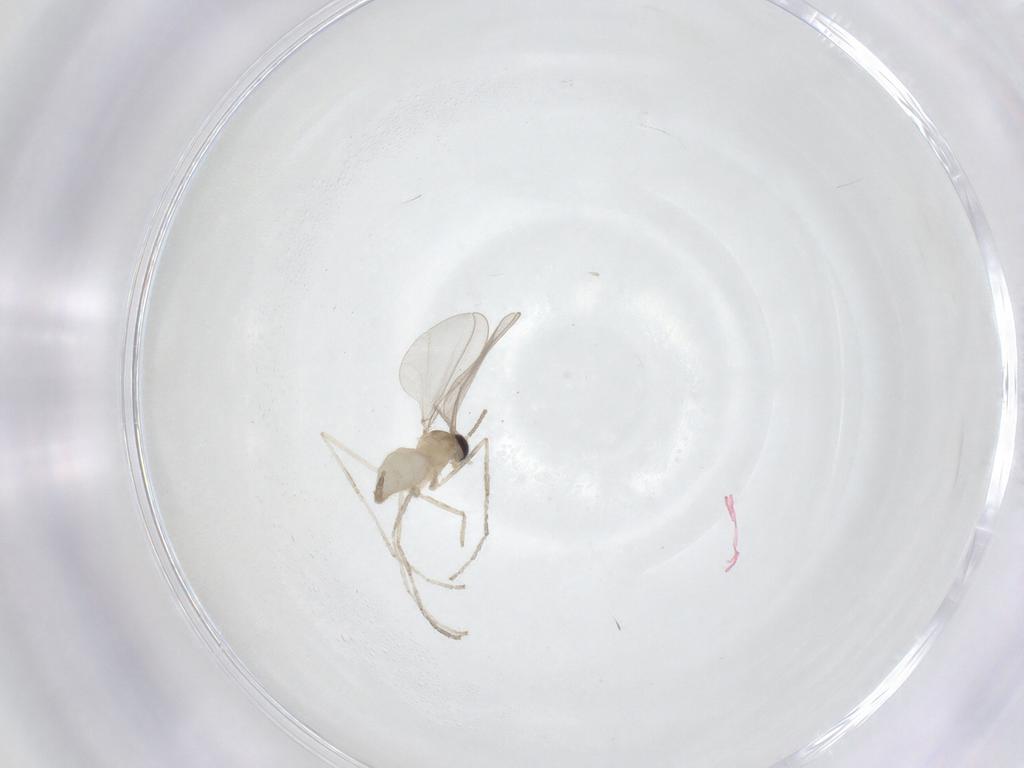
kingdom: Animalia
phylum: Arthropoda
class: Insecta
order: Diptera
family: Cecidomyiidae
